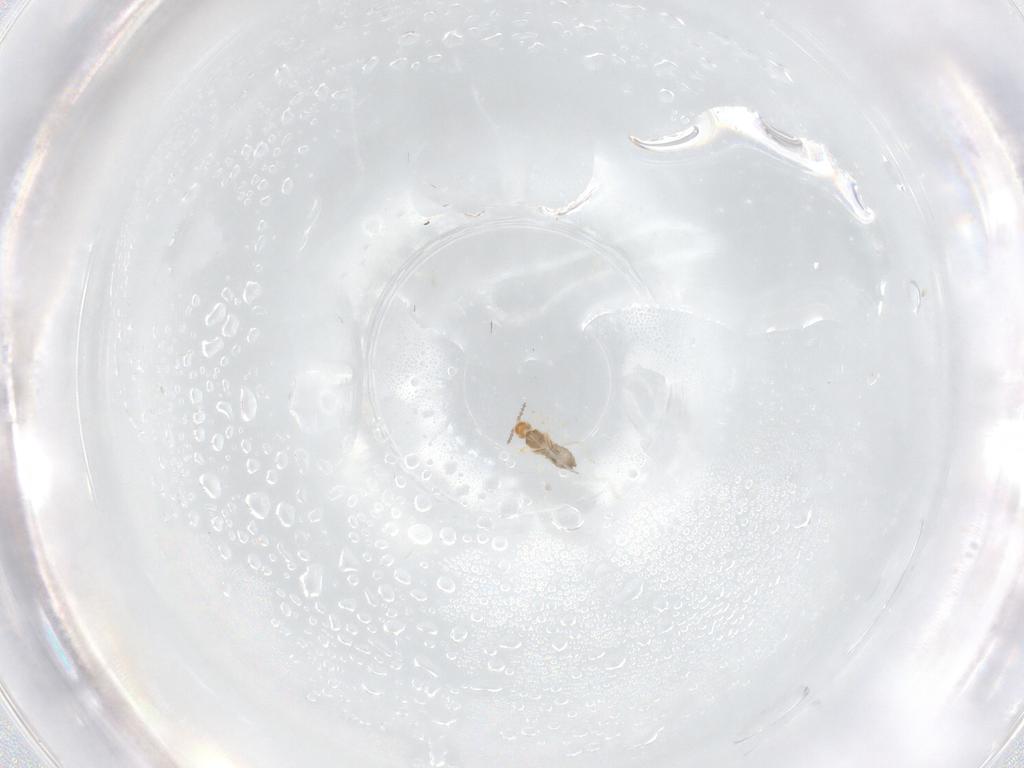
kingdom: Animalia
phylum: Arthropoda
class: Insecta
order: Diptera
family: Cecidomyiidae
